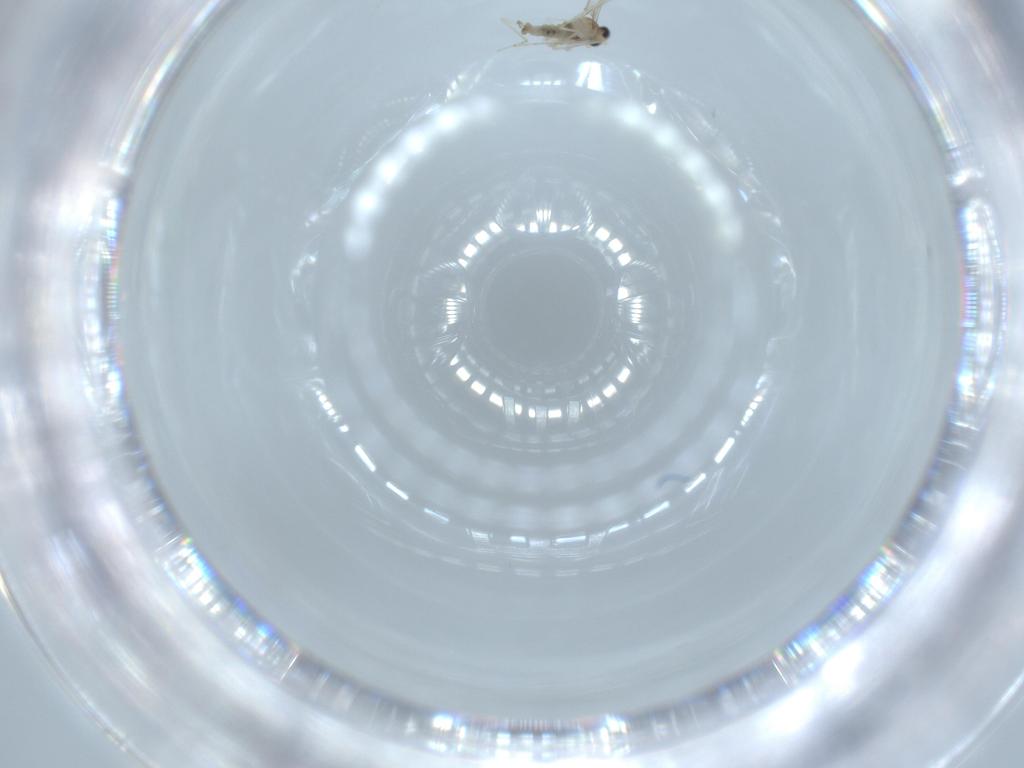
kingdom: Animalia
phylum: Arthropoda
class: Insecta
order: Diptera
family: Cecidomyiidae
